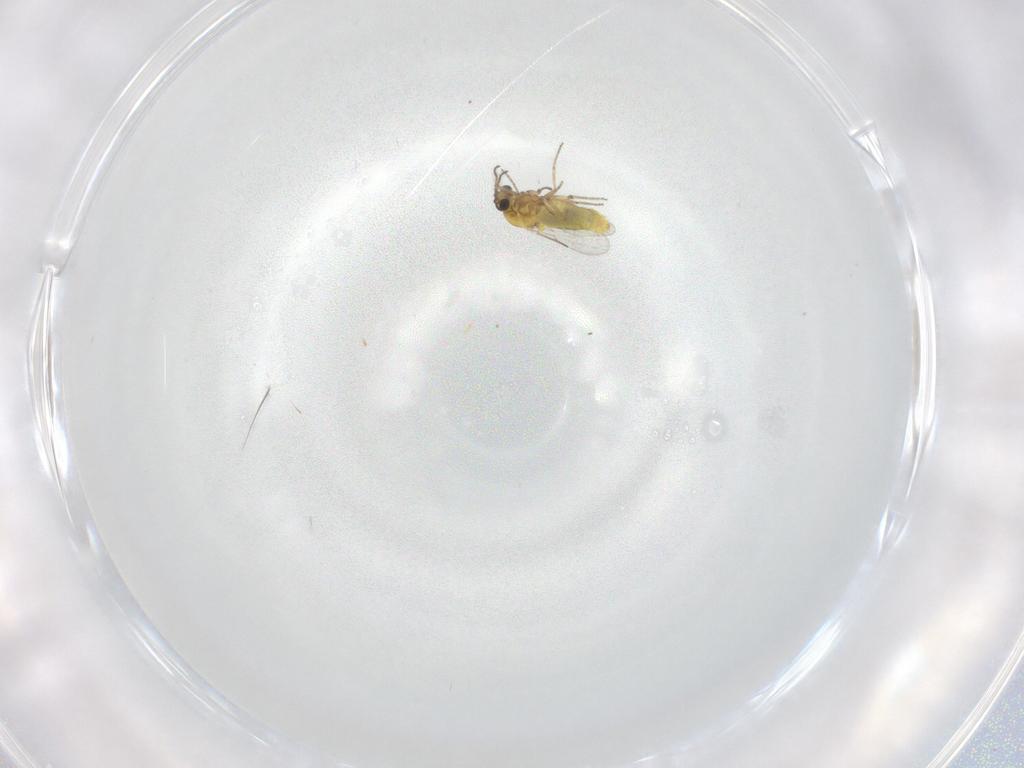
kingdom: Animalia
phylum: Arthropoda
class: Insecta
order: Diptera
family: Ceratopogonidae
